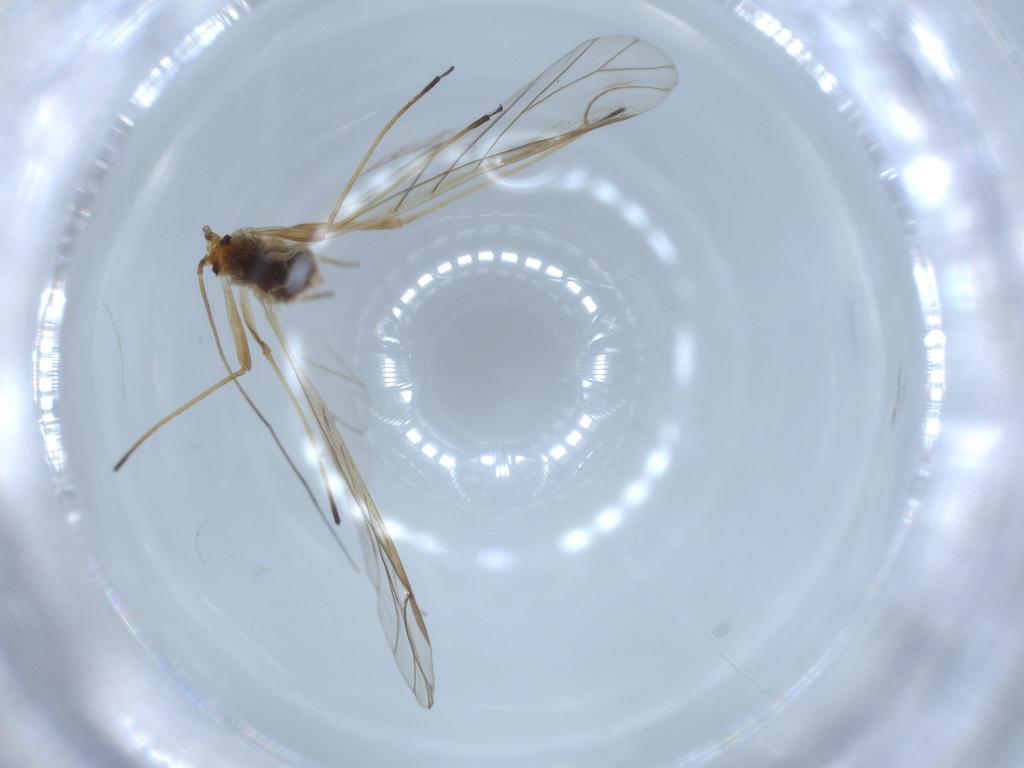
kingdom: Animalia
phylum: Arthropoda
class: Insecta
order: Hemiptera
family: Aphididae
